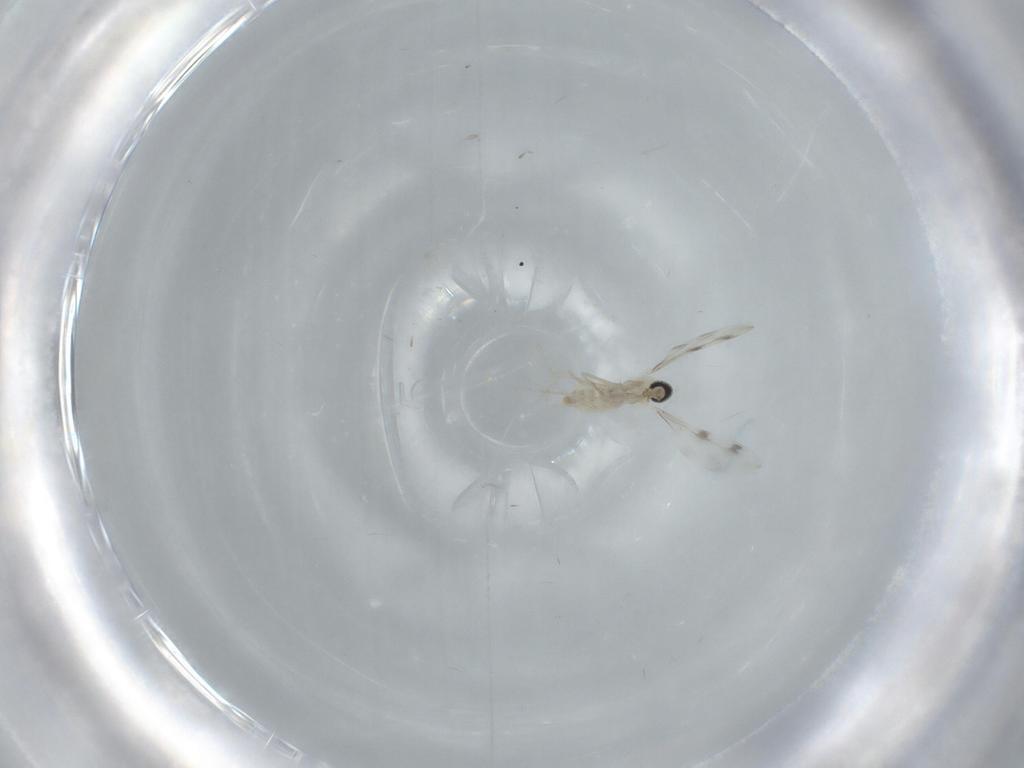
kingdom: Animalia
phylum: Arthropoda
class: Insecta
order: Diptera
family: Cecidomyiidae
